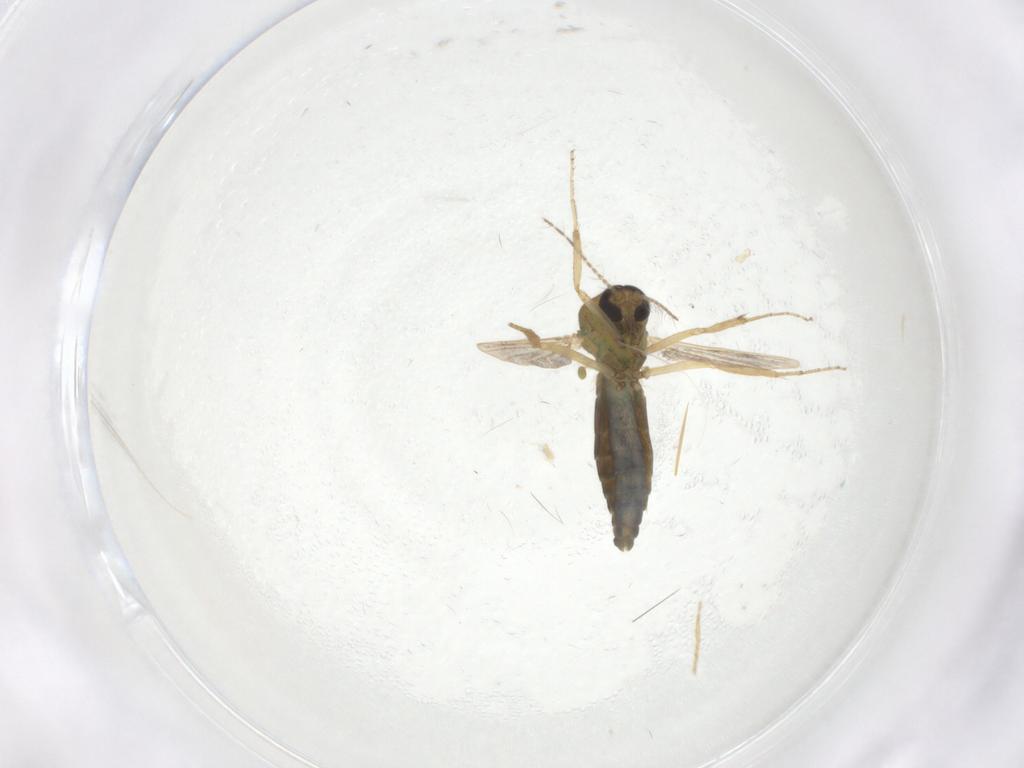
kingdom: Animalia
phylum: Arthropoda
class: Insecta
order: Diptera
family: Ceratopogonidae
